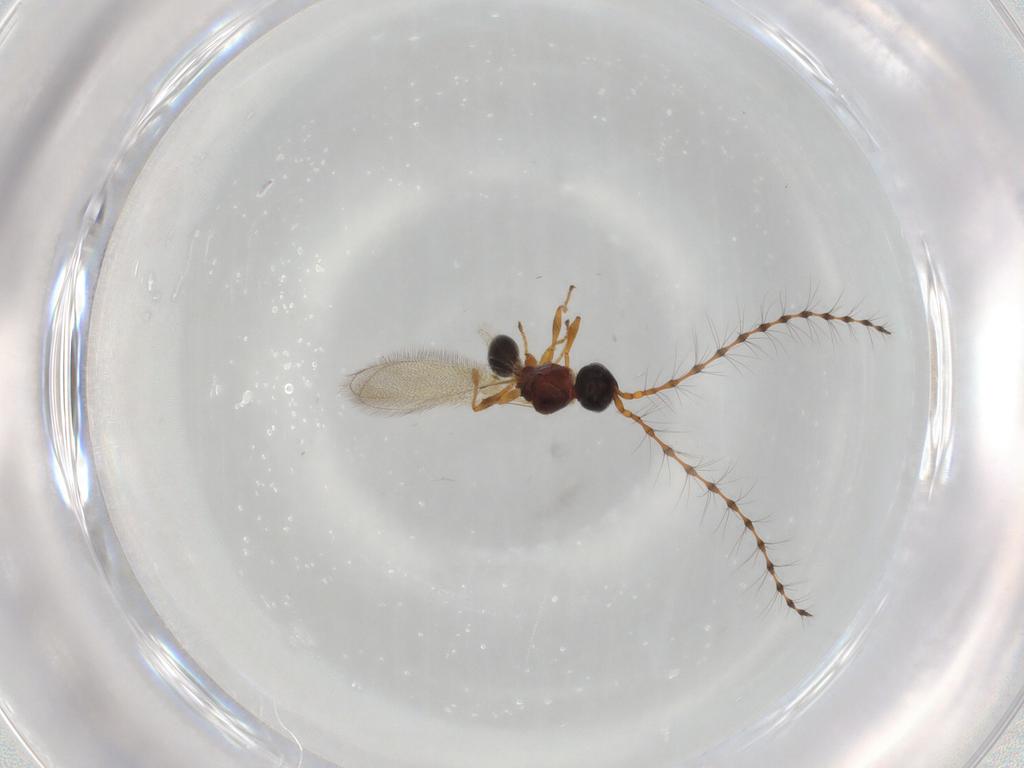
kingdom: Animalia
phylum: Arthropoda
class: Insecta
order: Hymenoptera
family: Diapriidae
